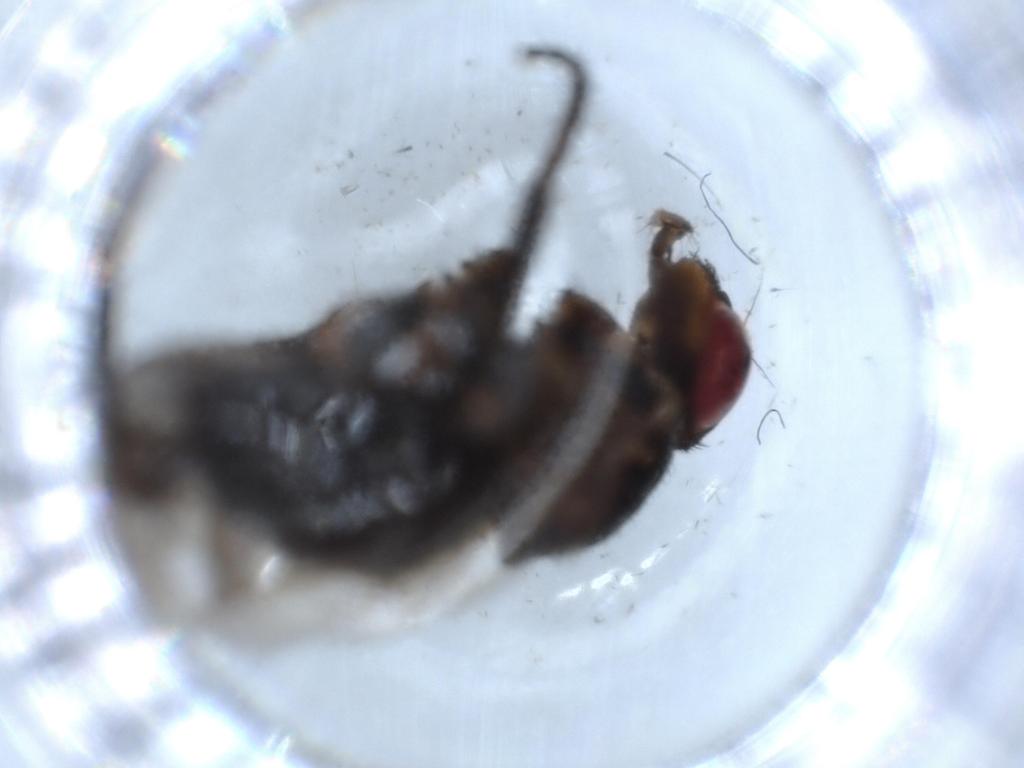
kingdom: Animalia
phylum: Arthropoda
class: Insecta
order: Diptera
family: Calliphoridae
